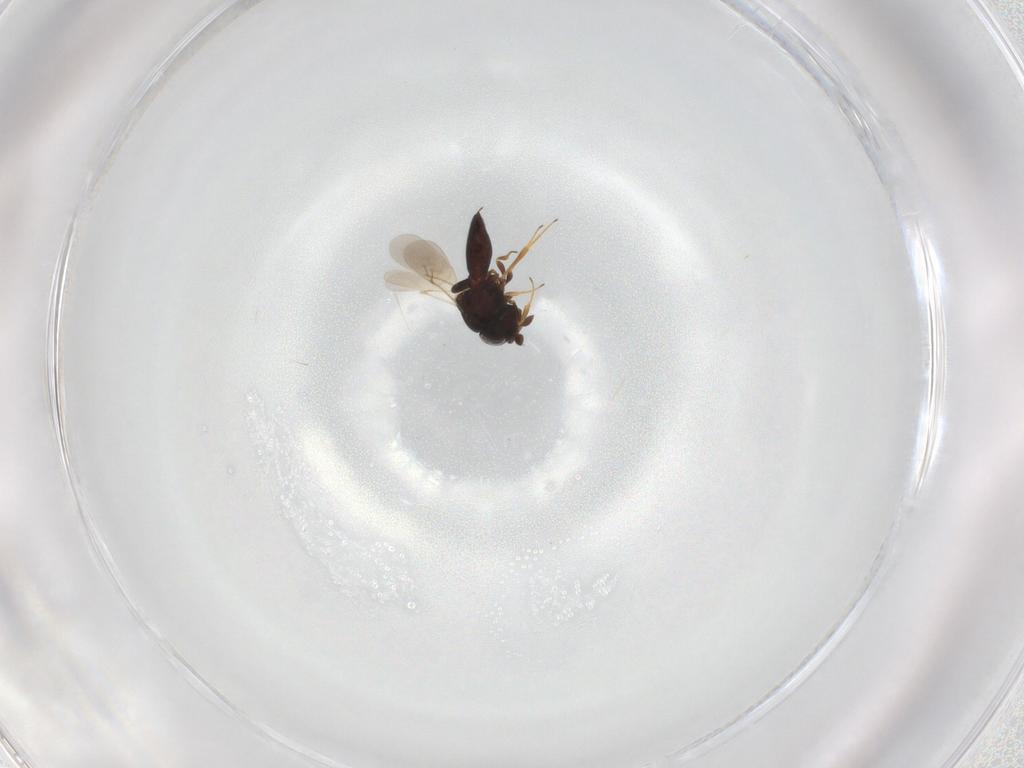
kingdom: Animalia
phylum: Arthropoda
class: Insecta
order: Hymenoptera
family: Scelionidae
